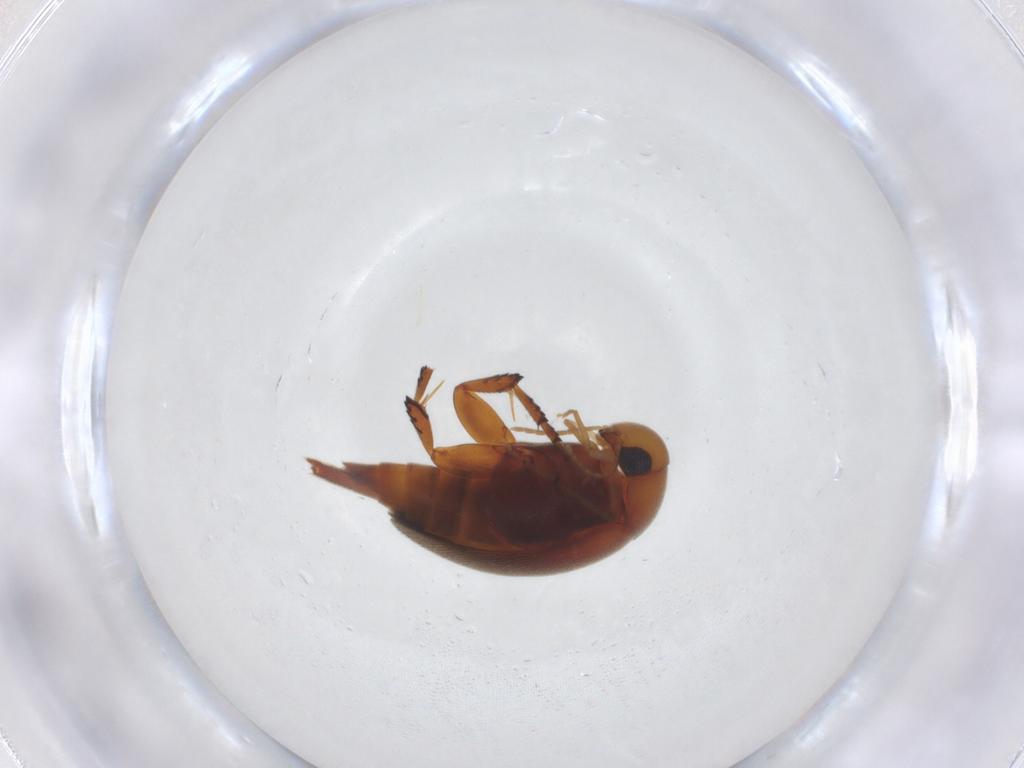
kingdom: Animalia
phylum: Arthropoda
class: Insecta
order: Coleoptera
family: Mordellidae
